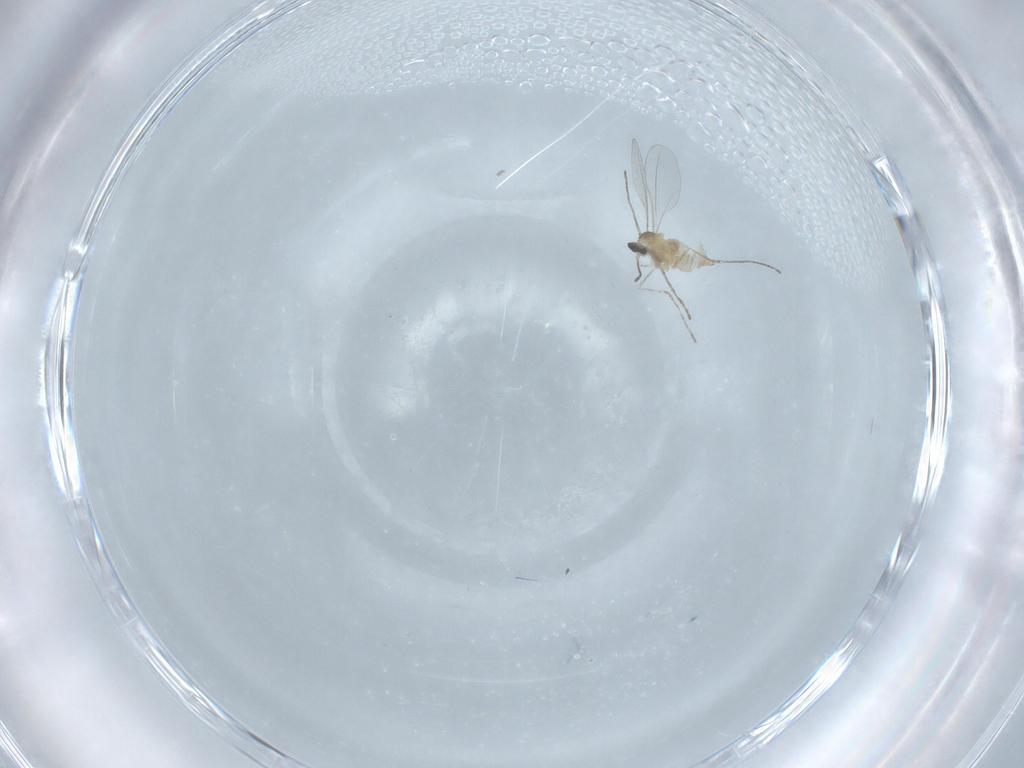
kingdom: Animalia
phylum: Arthropoda
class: Insecta
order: Diptera
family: Cecidomyiidae
